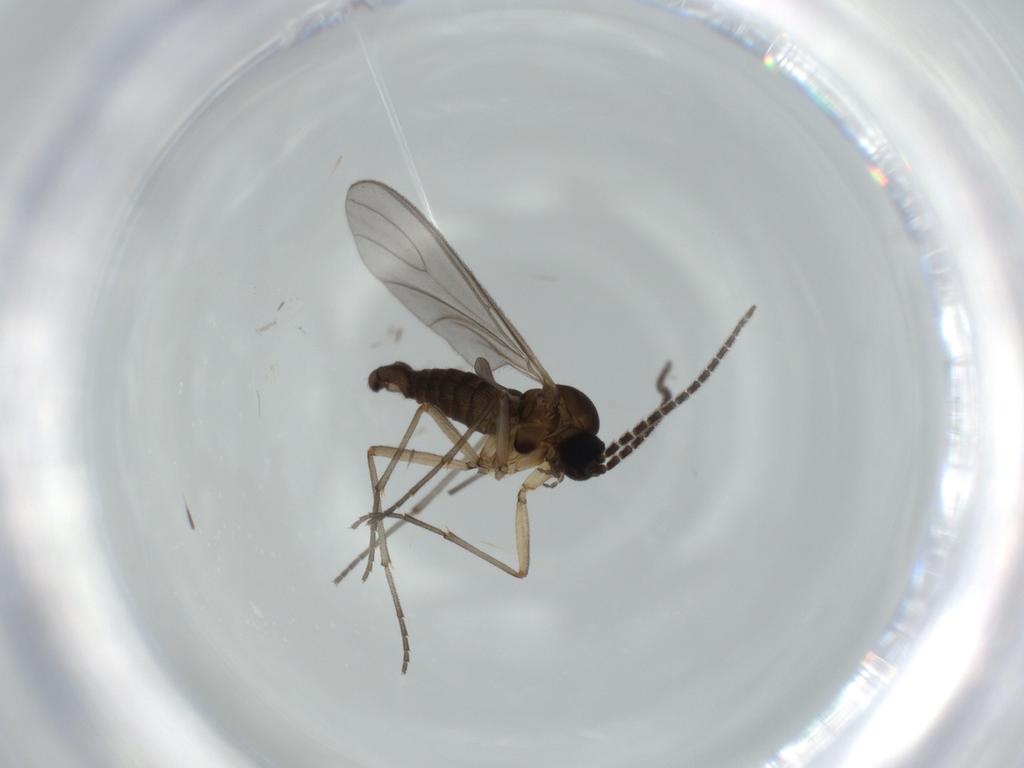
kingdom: Animalia
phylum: Arthropoda
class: Insecta
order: Diptera
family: Sciaridae
